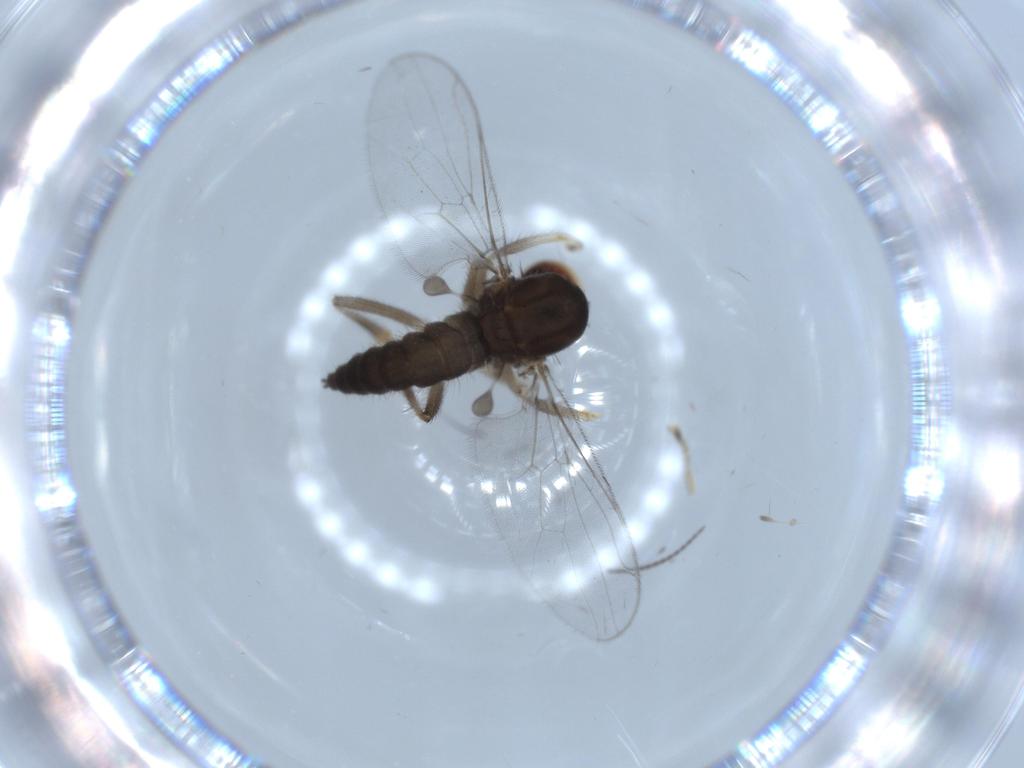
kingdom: Animalia
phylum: Arthropoda
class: Insecta
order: Diptera
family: Hybotidae
